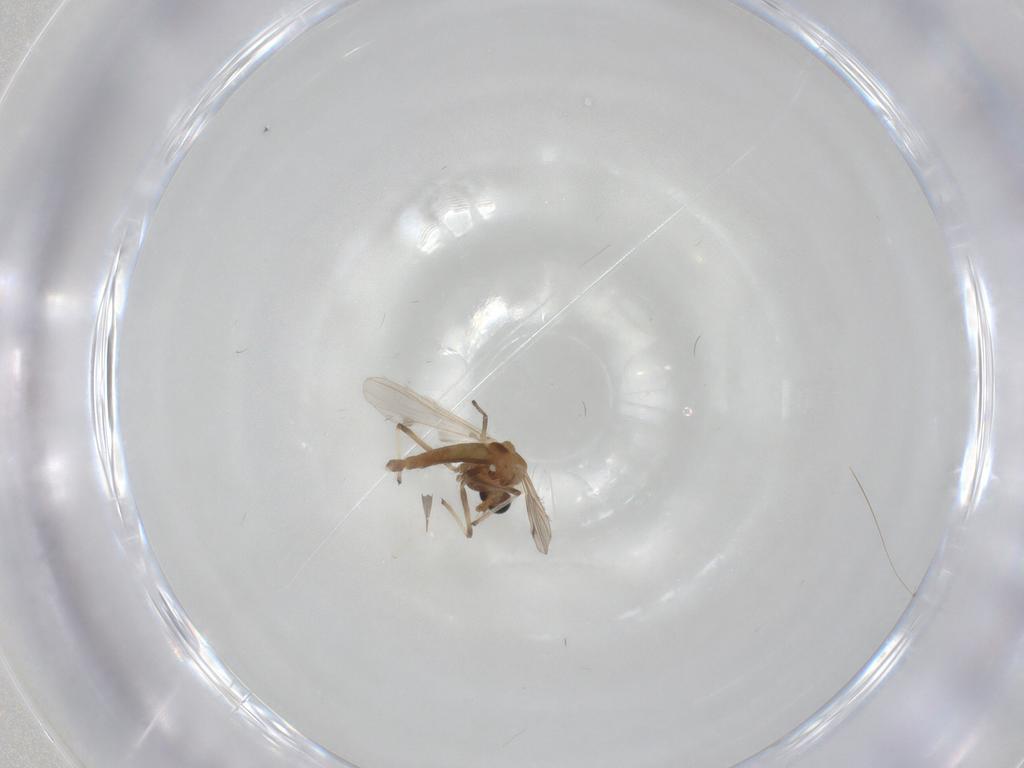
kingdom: Animalia
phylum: Arthropoda
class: Insecta
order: Diptera
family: Chironomidae
